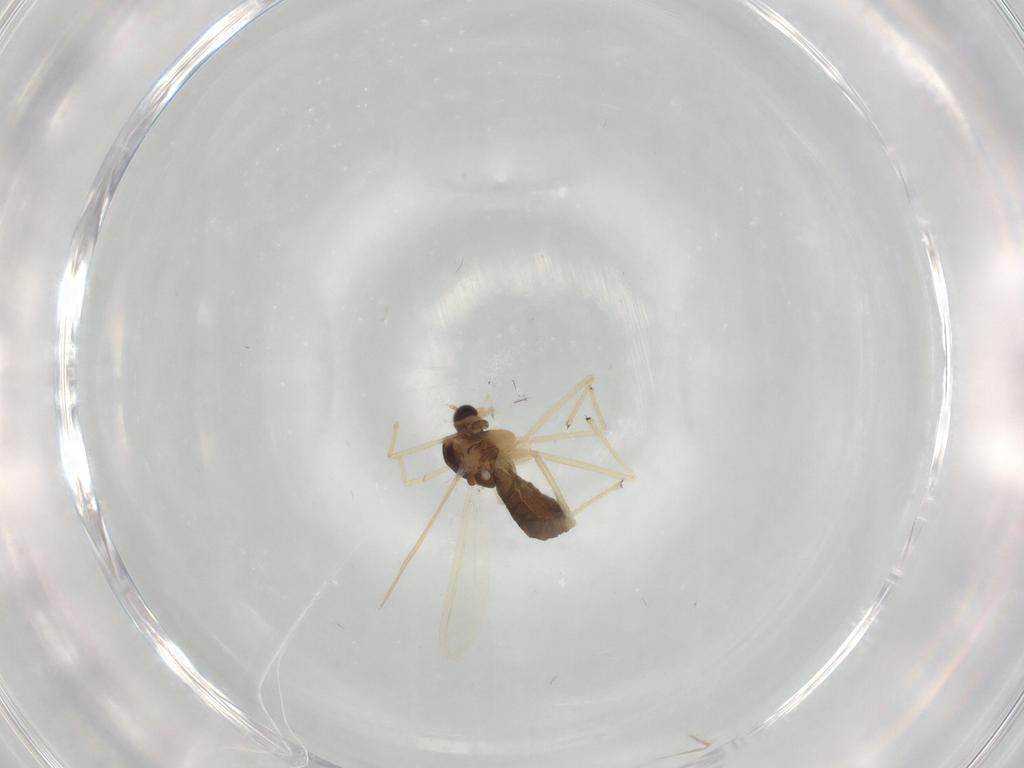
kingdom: Animalia
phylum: Arthropoda
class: Insecta
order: Diptera
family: Chironomidae
